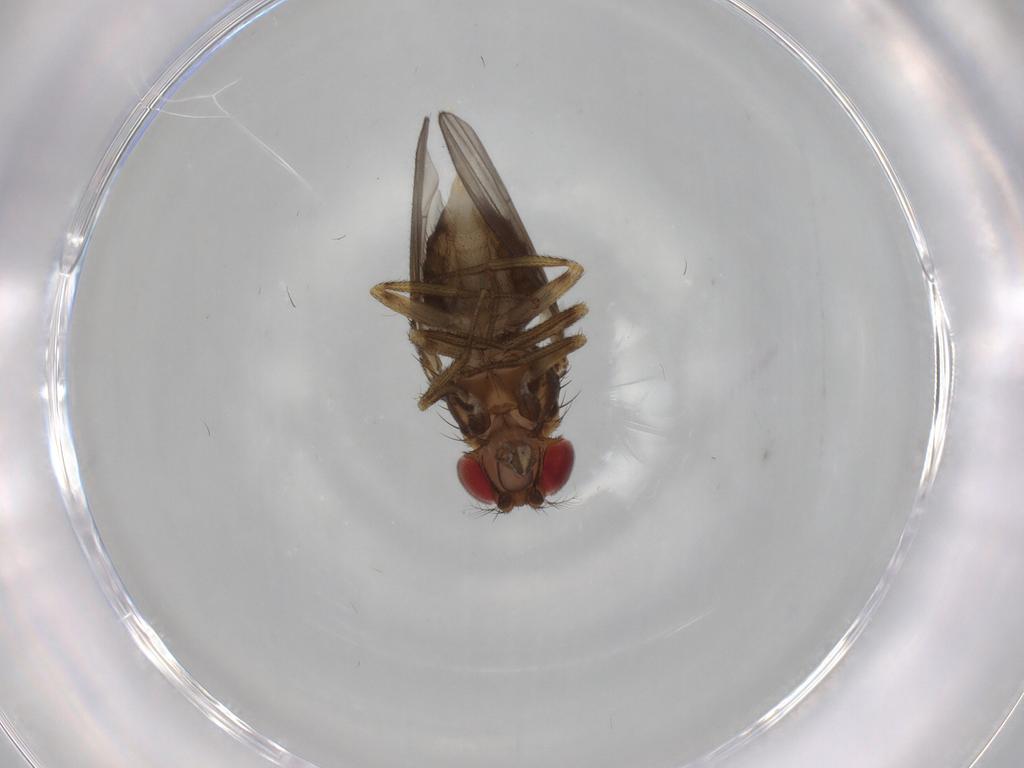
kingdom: Animalia
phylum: Arthropoda
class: Insecta
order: Diptera
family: Drosophilidae
